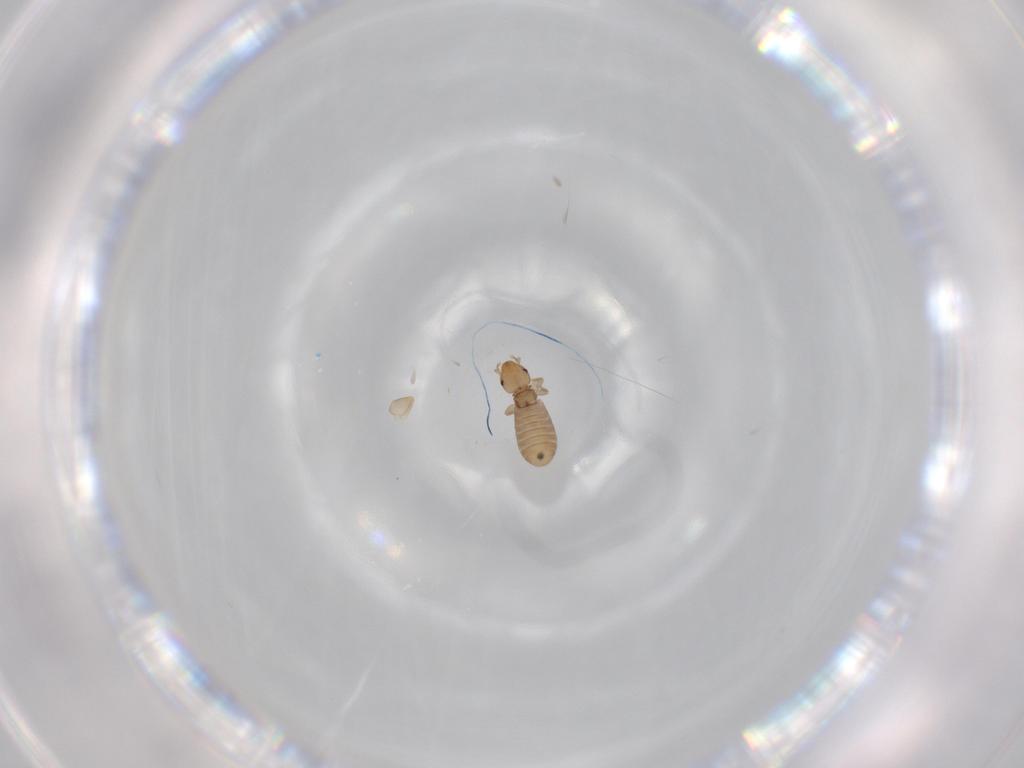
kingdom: Animalia
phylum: Arthropoda
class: Insecta
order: Psocodea
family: Liposcelididae
